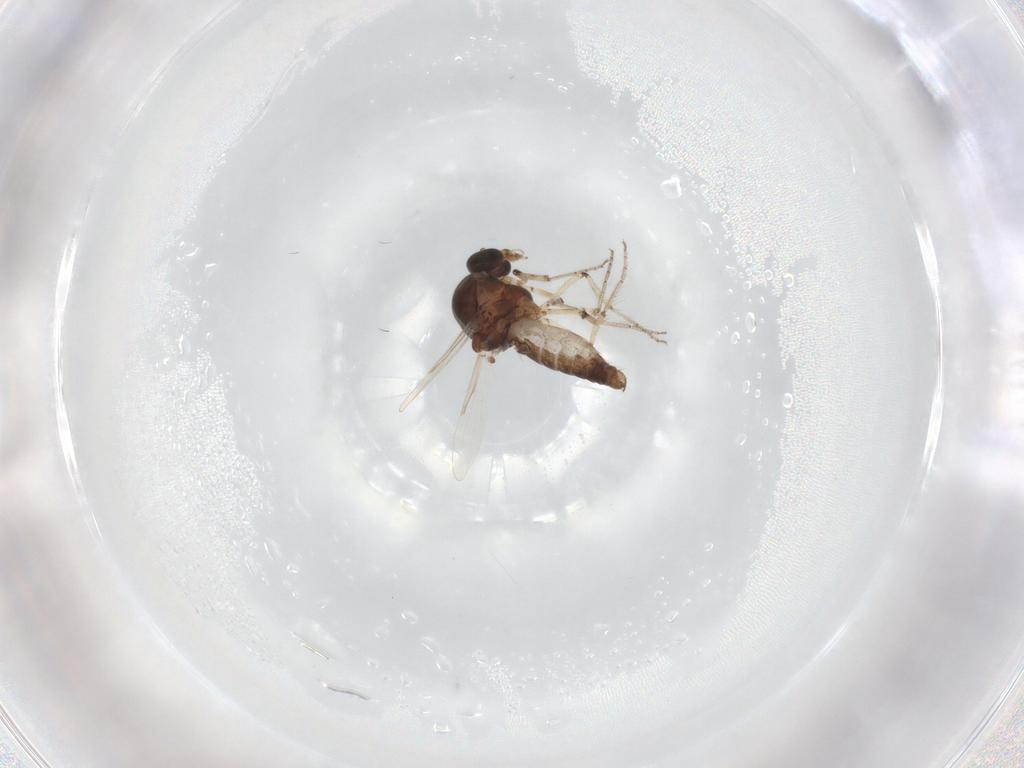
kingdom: Animalia
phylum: Arthropoda
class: Insecta
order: Diptera
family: Ceratopogonidae
